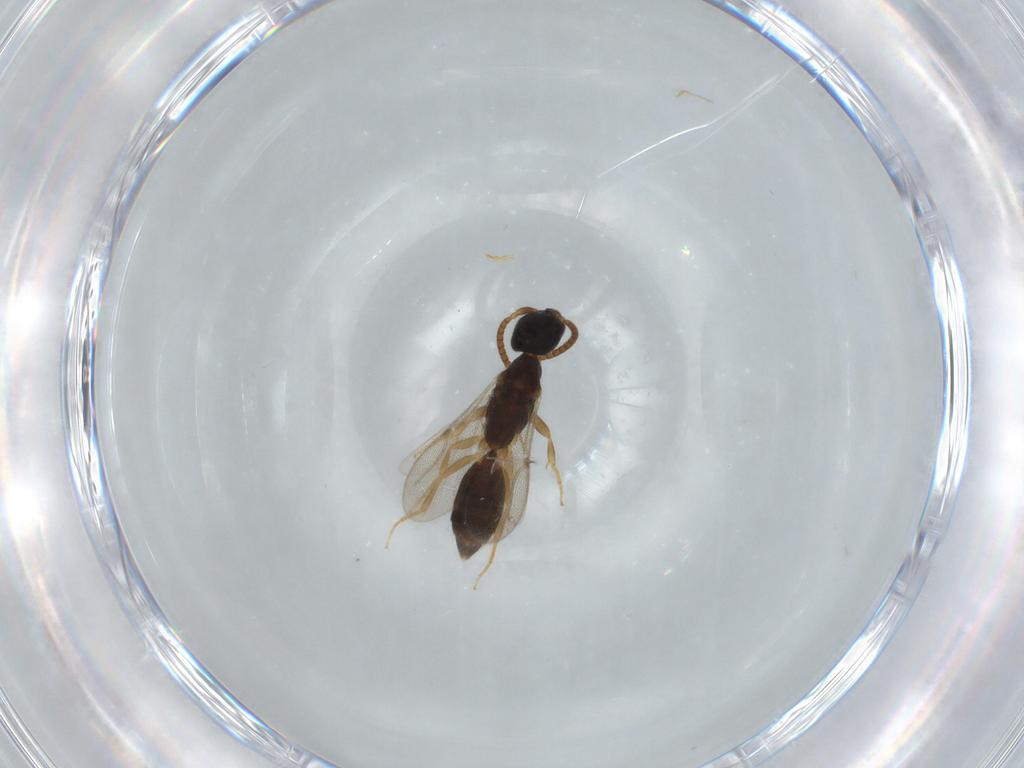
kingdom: Animalia
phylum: Arthropoda
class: Insecta
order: Hymenoptera
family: Bethylidae
